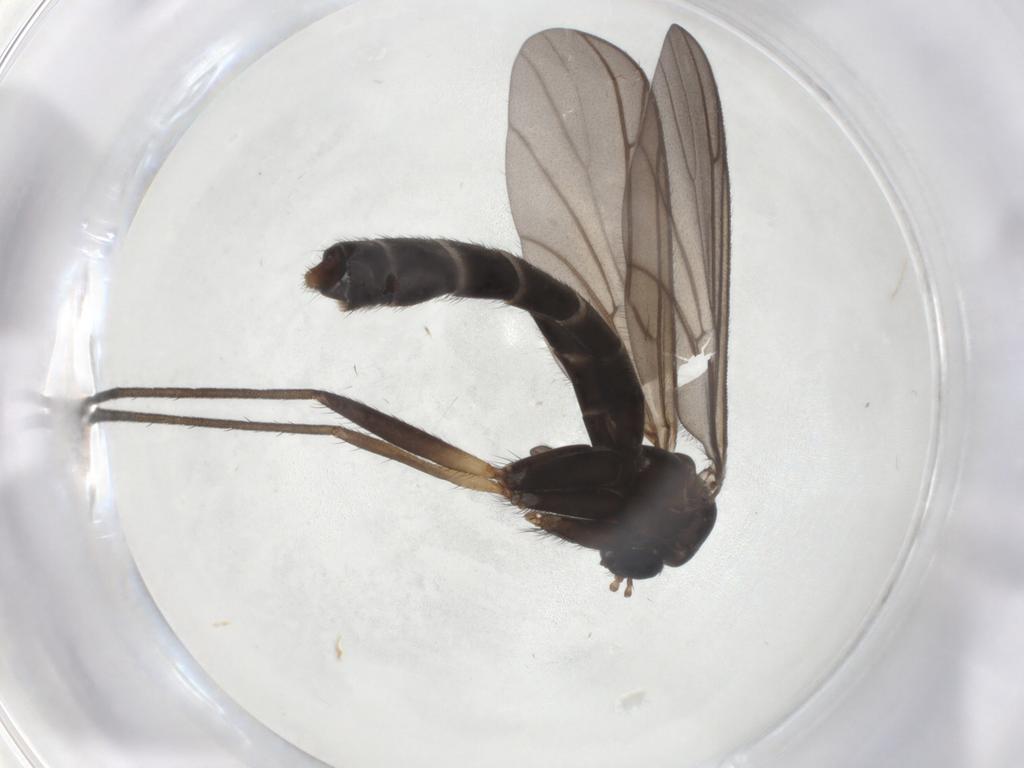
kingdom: Animalia
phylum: Arthropoda
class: Insecta
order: Diptera
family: Ditomyiidae
